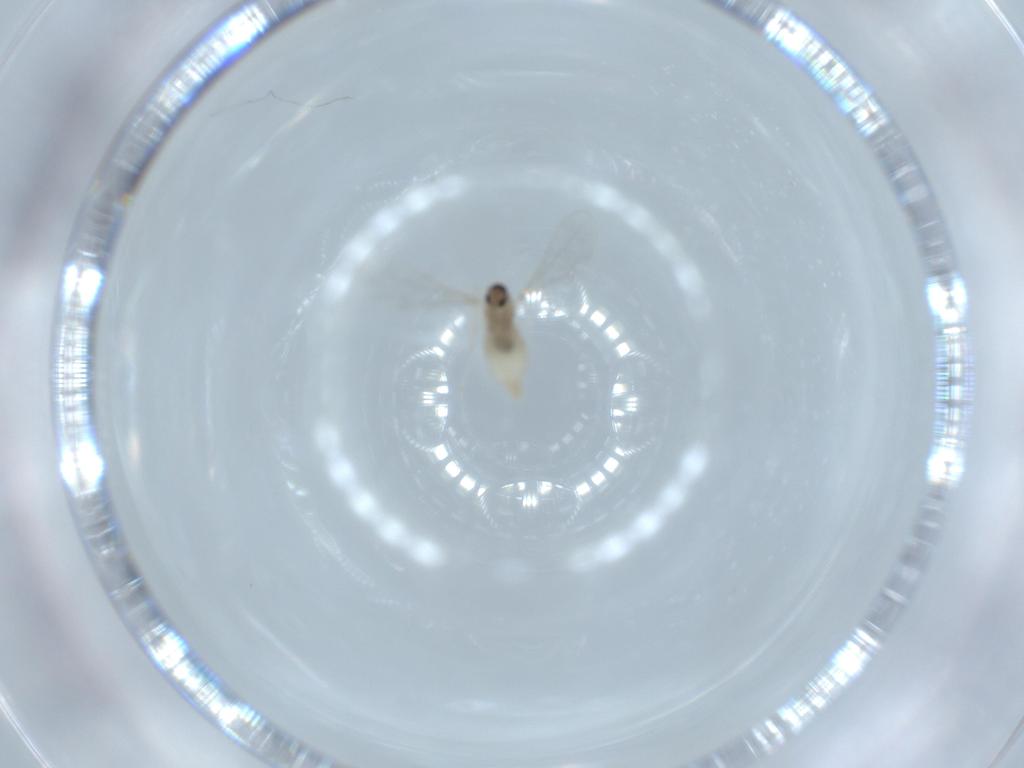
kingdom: Animalia
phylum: Arthropoda
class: Insecta
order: Diptera
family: Cecidomyiidae
